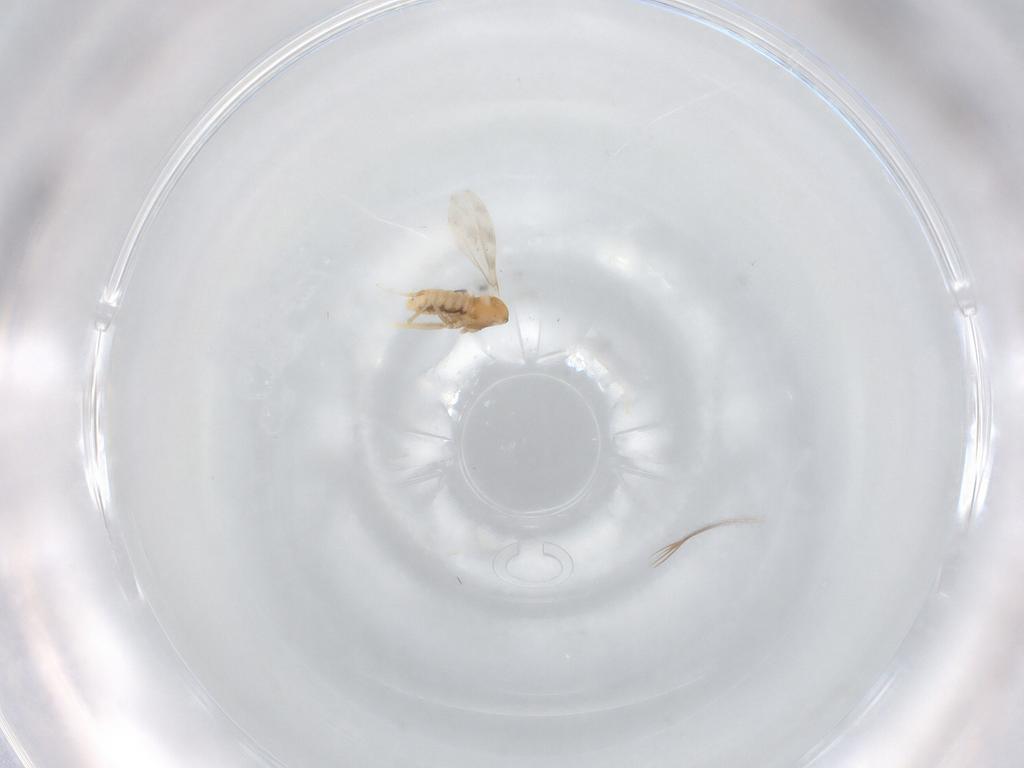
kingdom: Animalia
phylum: Arthropoda
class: Insecta
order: Diptera
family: Cecidomyiidae
